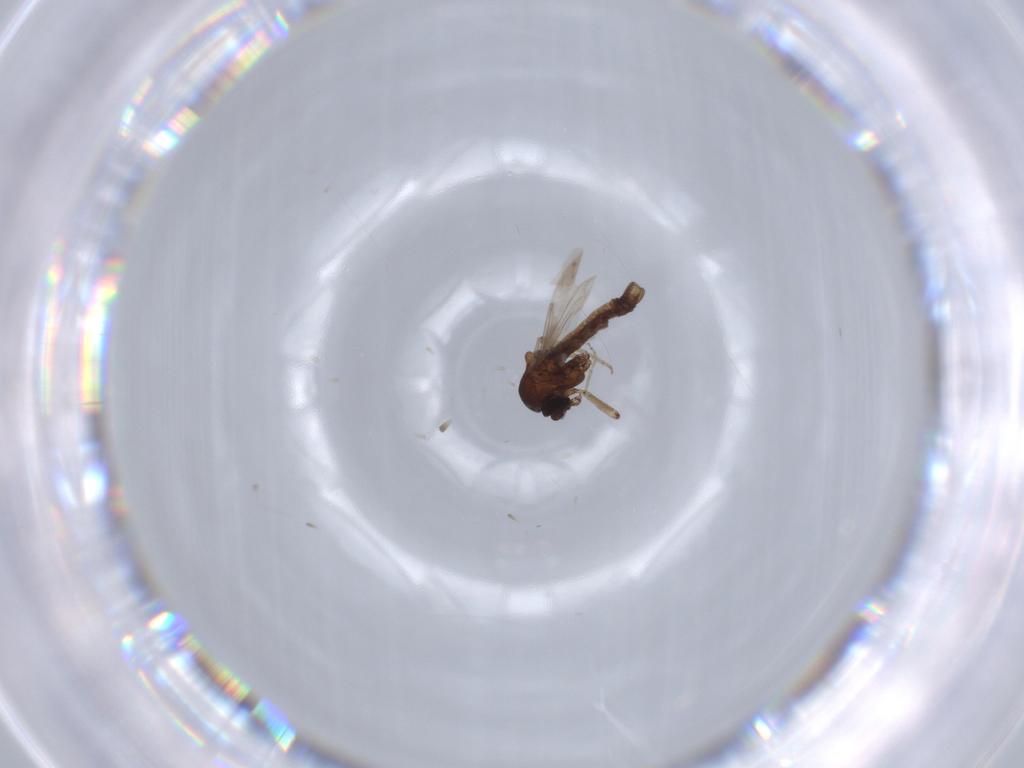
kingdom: Animalia
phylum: Arthropoda
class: Insecta
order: Diptera
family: Ceratopogonidae
